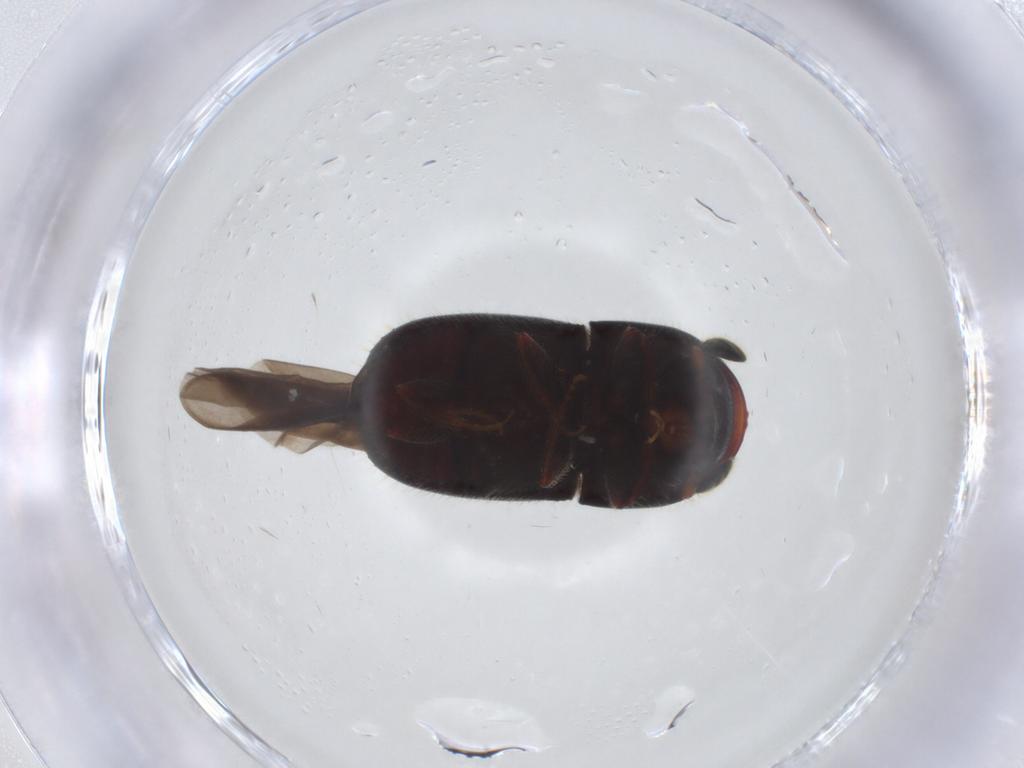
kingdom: Animalia
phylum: Arthropoda
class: Insecta
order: Coleoptera
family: Curculionidae
